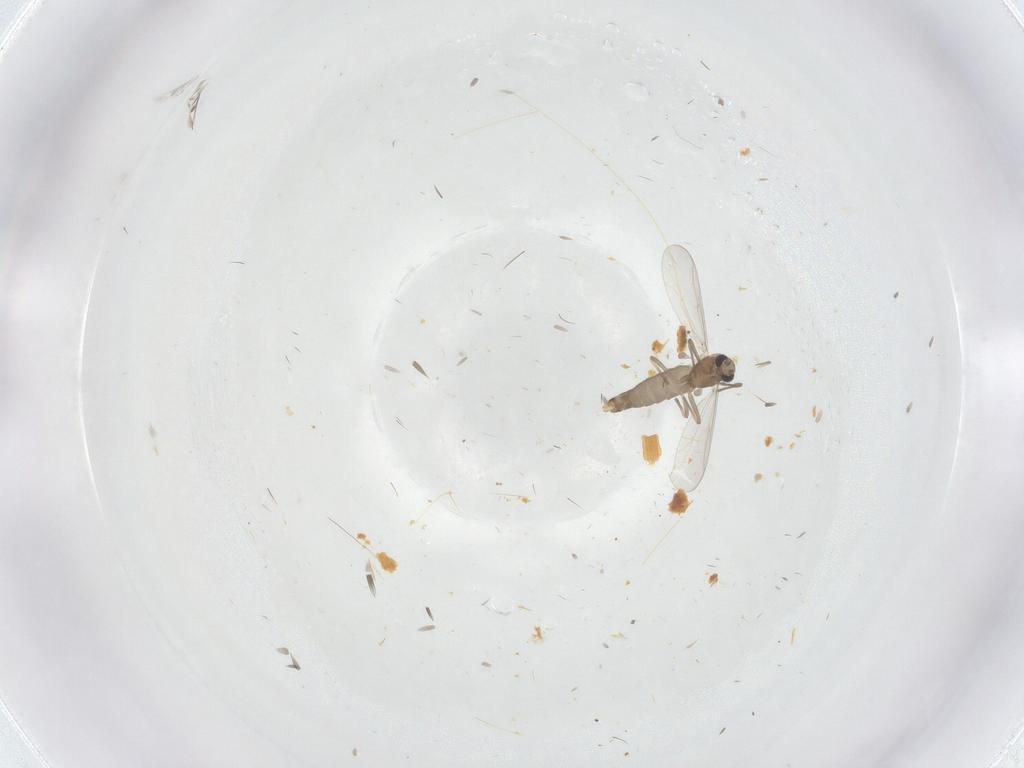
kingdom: Animalia
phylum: Arthropoda
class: Insecta
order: Diptera
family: Chironomidae
